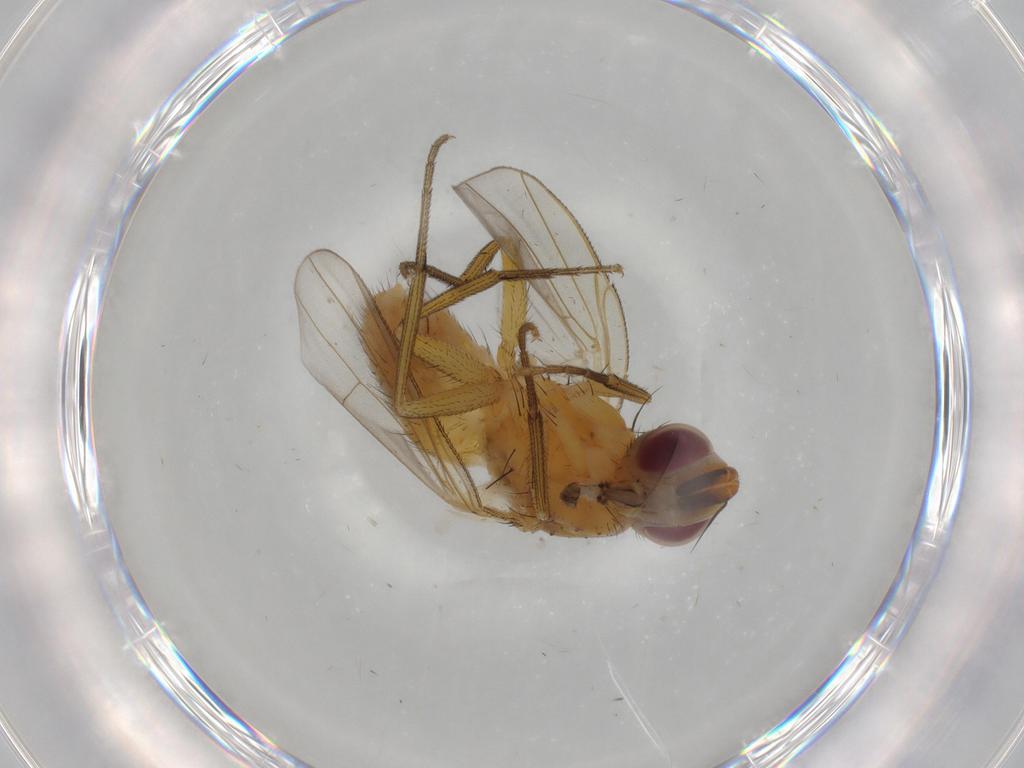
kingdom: Animalia
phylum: Arthropoda
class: Insecta
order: Diptera
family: Muscidae
